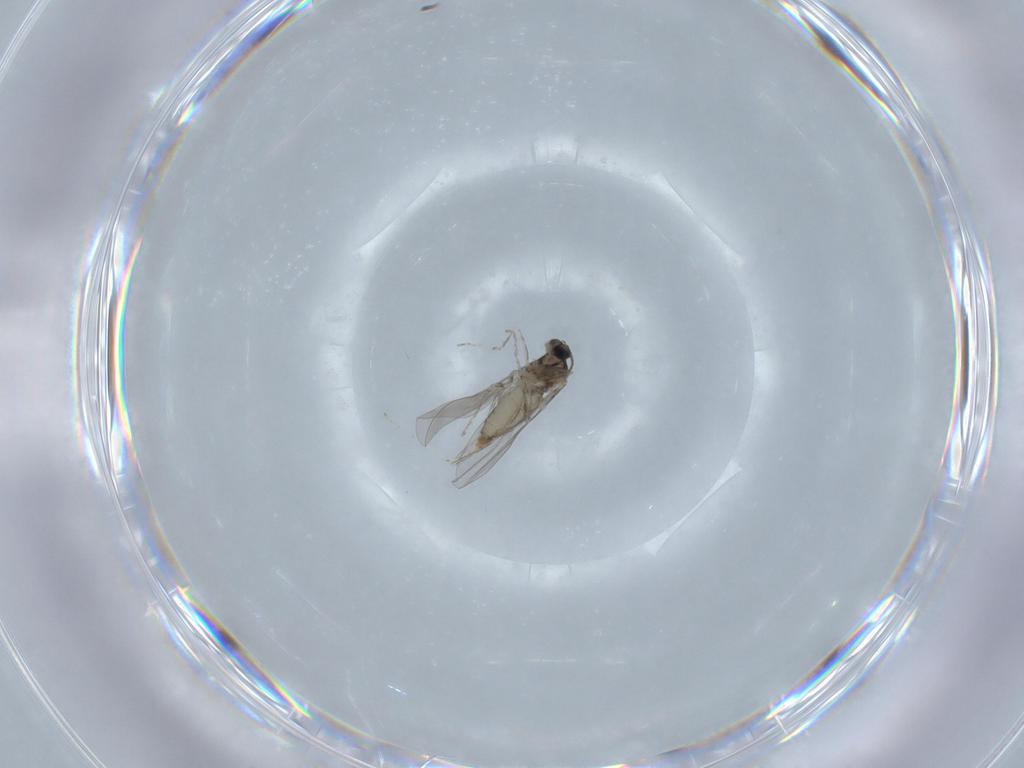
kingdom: Animalia
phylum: Arthropoda
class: Insecta
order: Diptera
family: Cecidomyiidae
